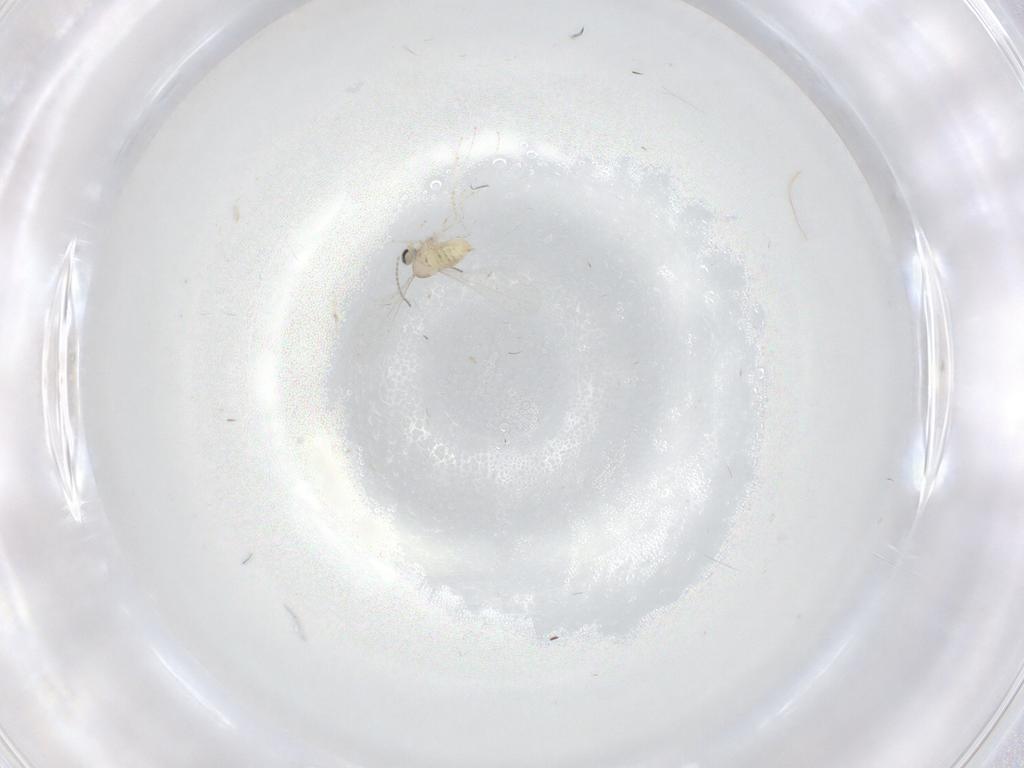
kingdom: Animalia
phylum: Arthropoda
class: Insecta
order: Diptera
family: Cecidomyiidae
